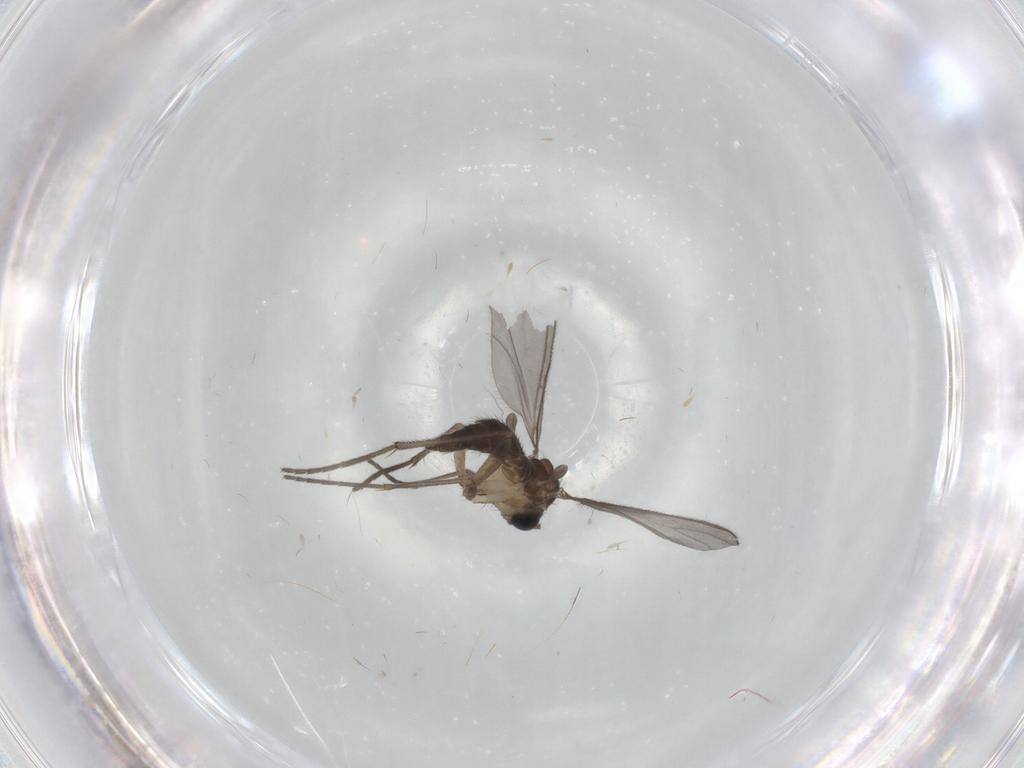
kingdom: Animalia
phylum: Arthropoda
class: Insecta
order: Diptera
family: Sciaridae
